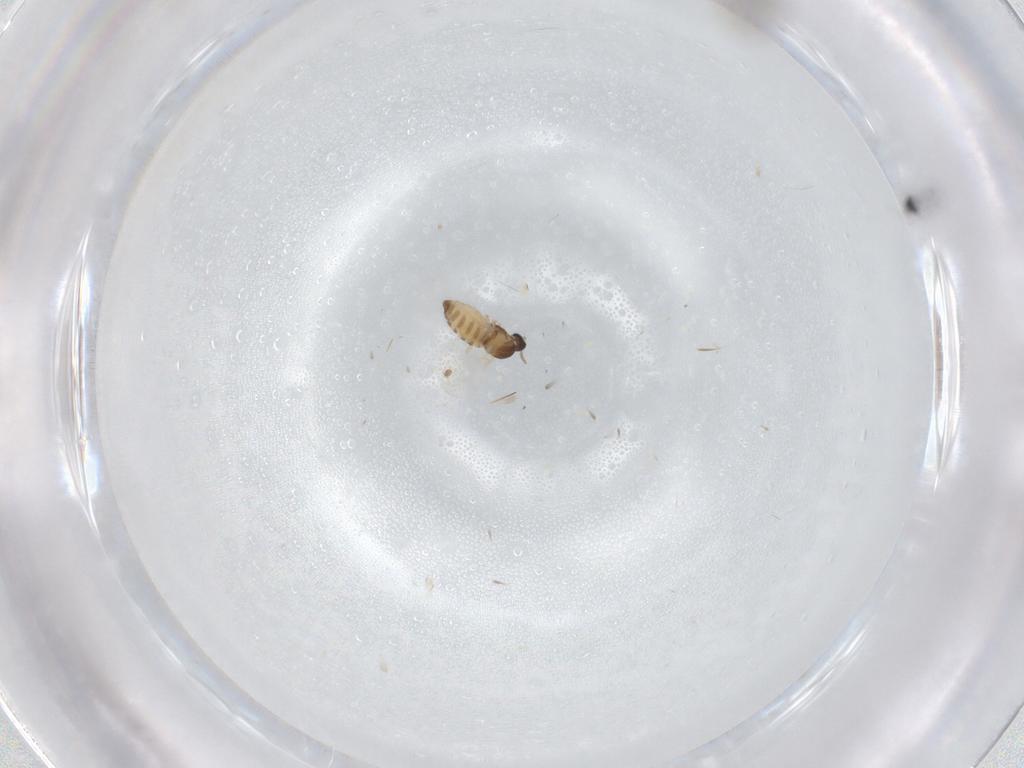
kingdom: Animalia
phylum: Arthropoda
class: Insecta
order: Diptera
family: Cecidomyiidae
